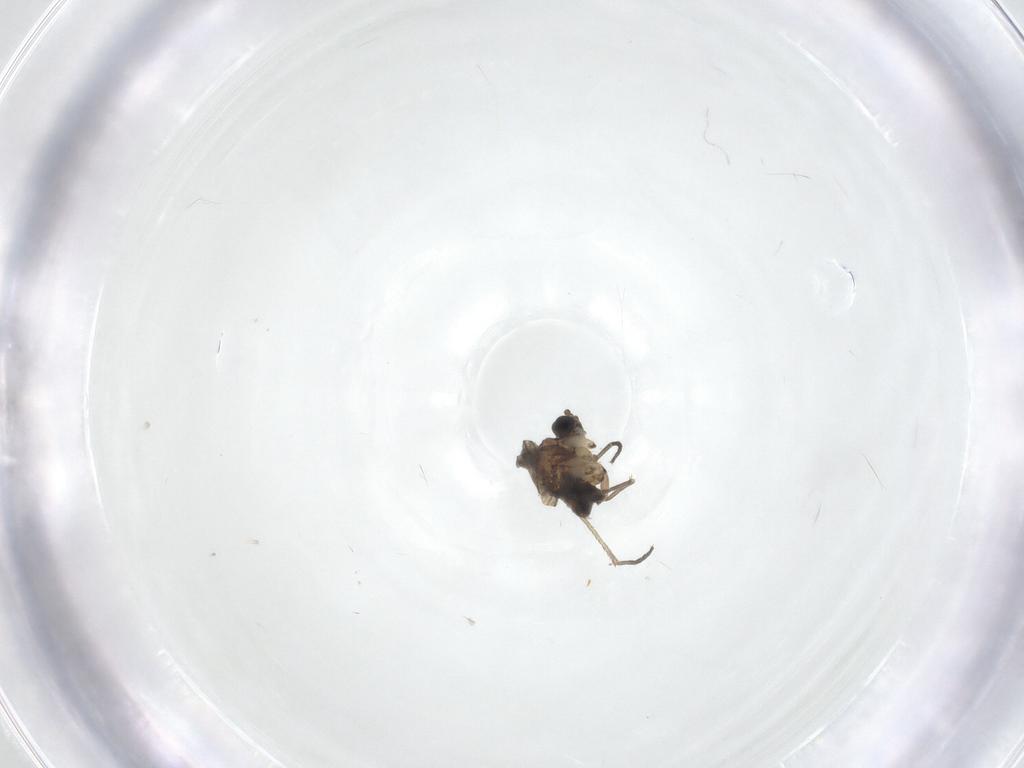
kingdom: Animalia
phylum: Arthropoda
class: Insecta
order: Diptera
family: Sciaridae
